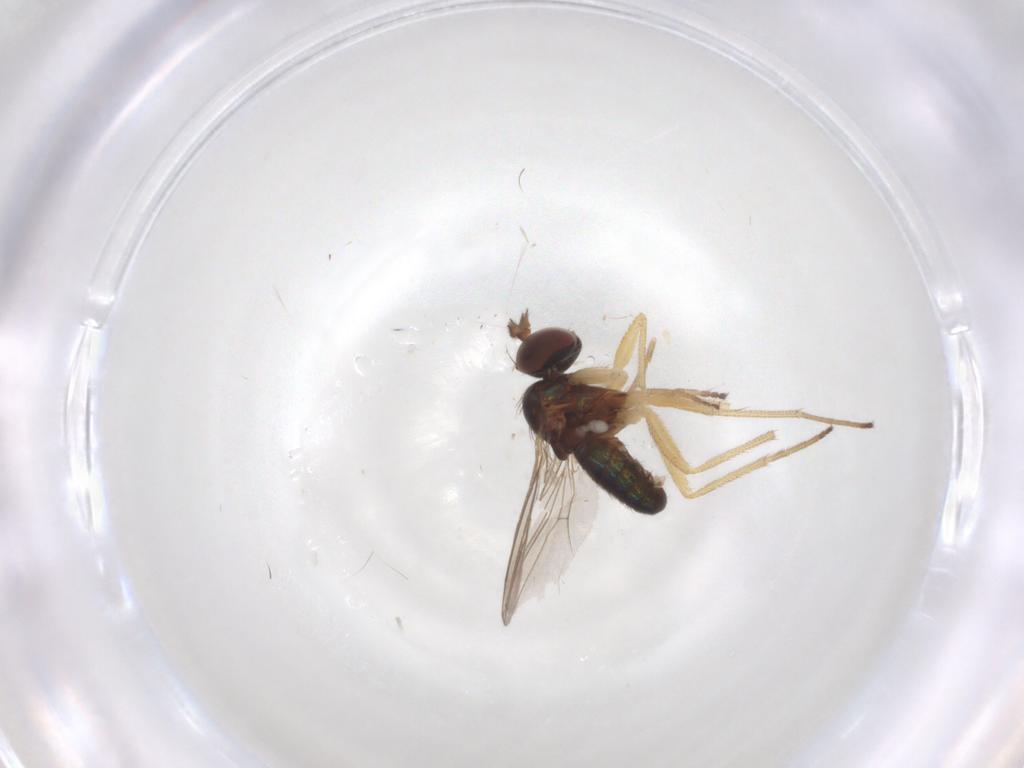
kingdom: Animalia
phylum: Arthropoda
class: Insecta
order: Diptera
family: Dolichopodidae
